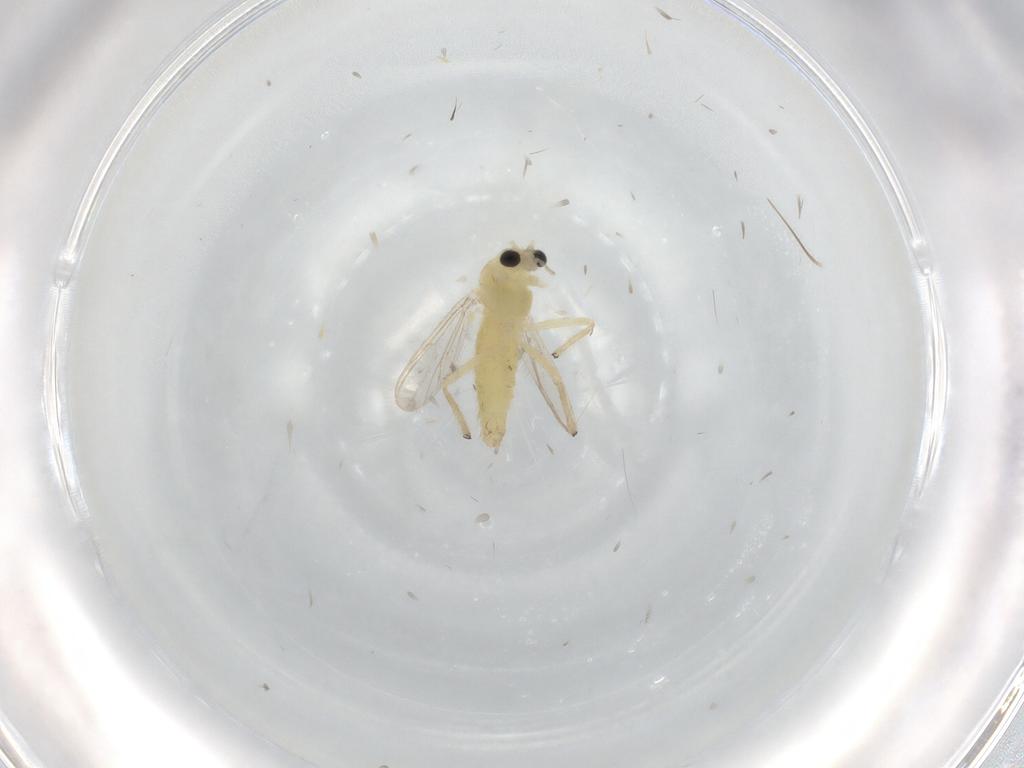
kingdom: Animalia
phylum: Arthropoda
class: Insecta
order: Diptera
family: Chironomidae
